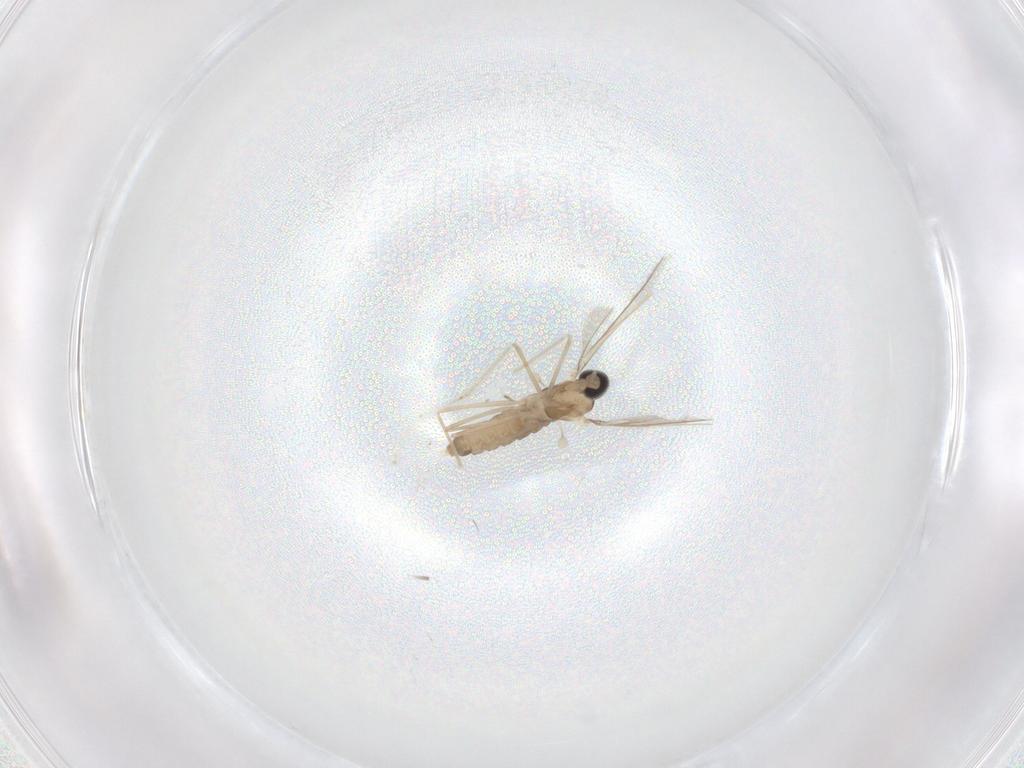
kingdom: Animalia
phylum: Arthropoda
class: Insecta
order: Diptera
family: Cecidomyiidae
